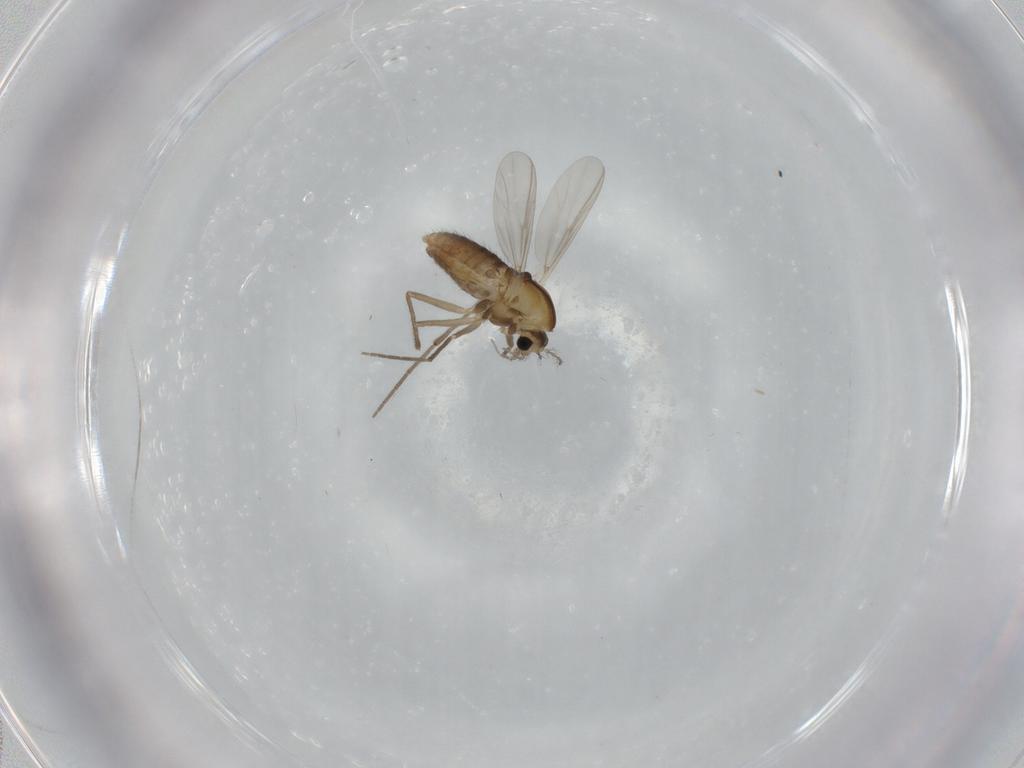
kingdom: Animalia
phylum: Arthropoda
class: Insecta
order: Diptera
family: Chironomidae
